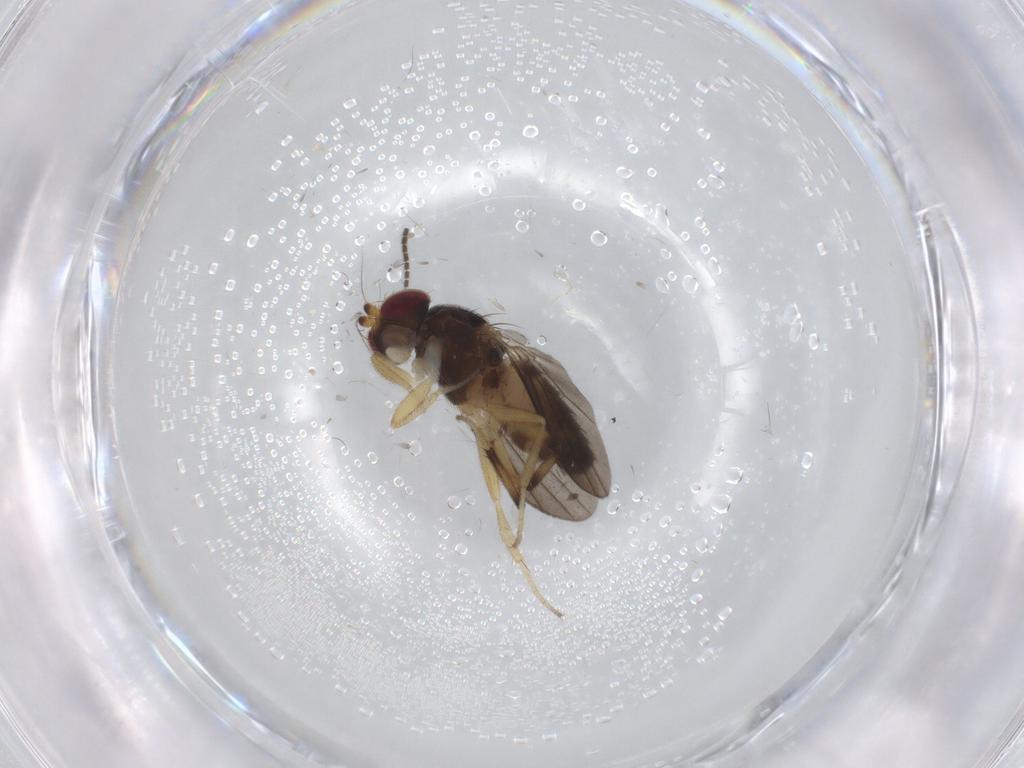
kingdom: Animalia
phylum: Arthropoda
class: Insecta
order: Diptera
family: Clusiidae
